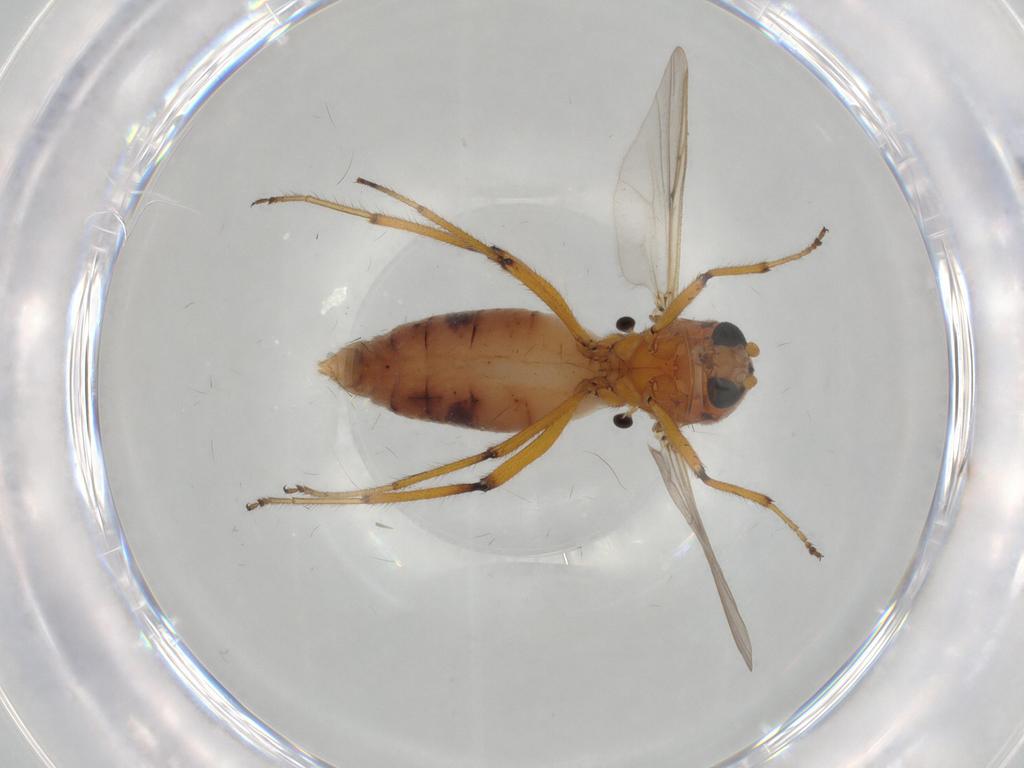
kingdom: Animalia
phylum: Arthropoda
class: Insecta
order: Diptera
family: Ceratopogonidae
